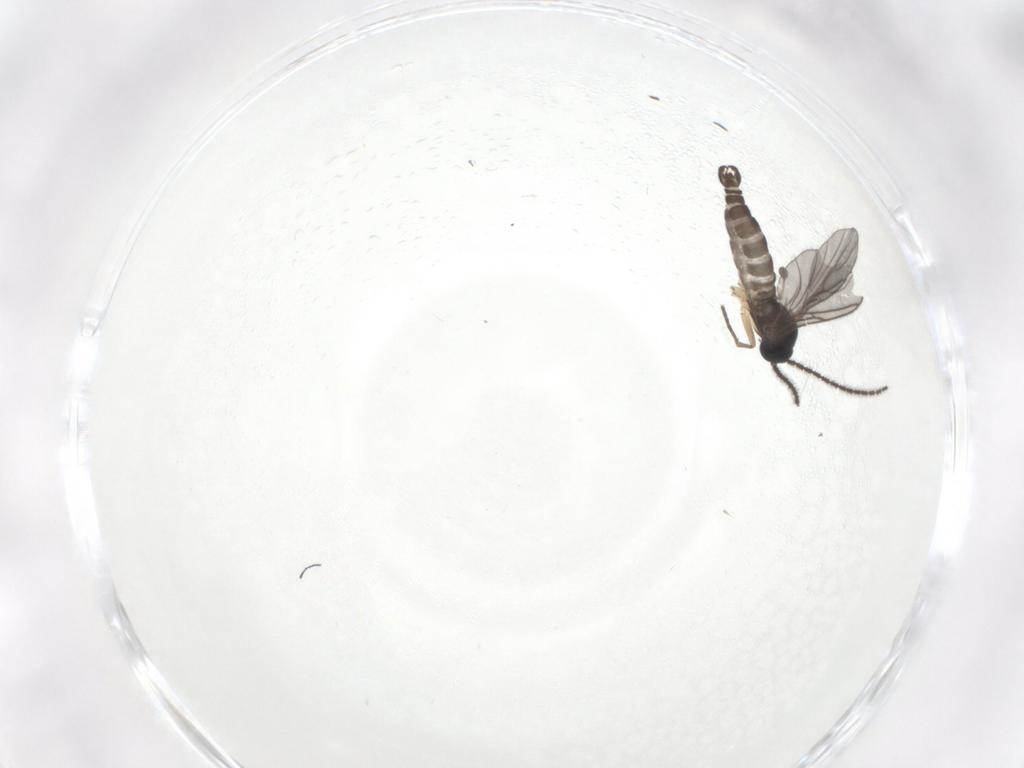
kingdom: Animalia
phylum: Arthropoda
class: Insecta
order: Diptera
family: Sciaridae
